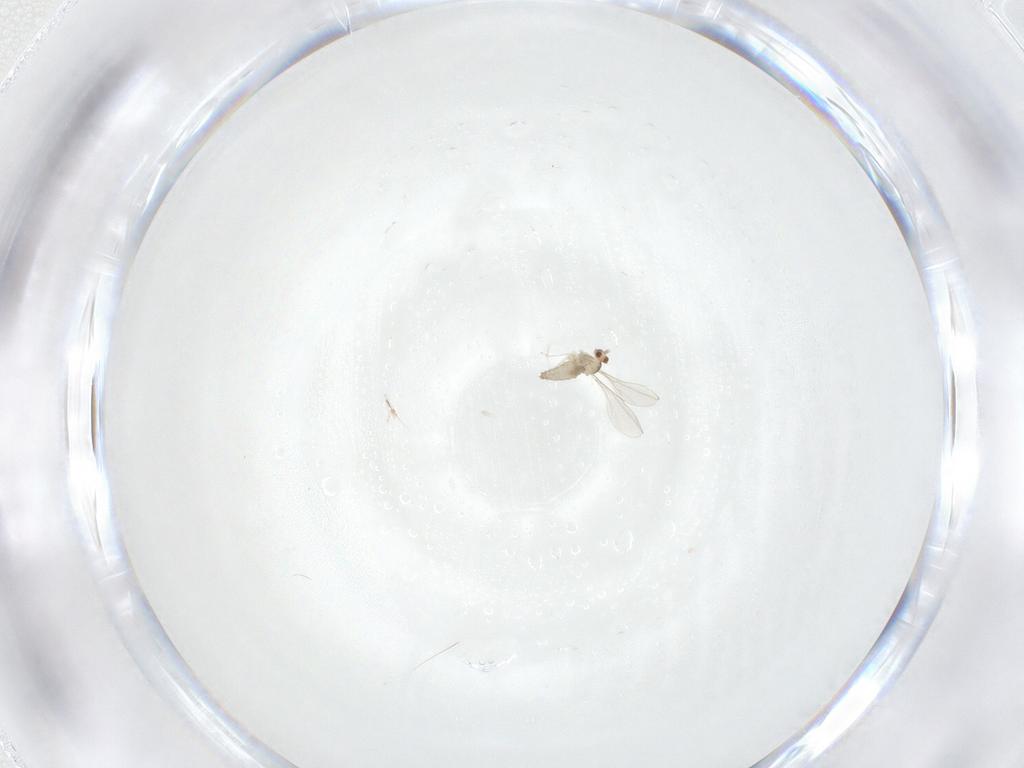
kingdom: Animalia
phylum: Arthropoda
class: Insecta
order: Diptera
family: Cecidomyiidae
